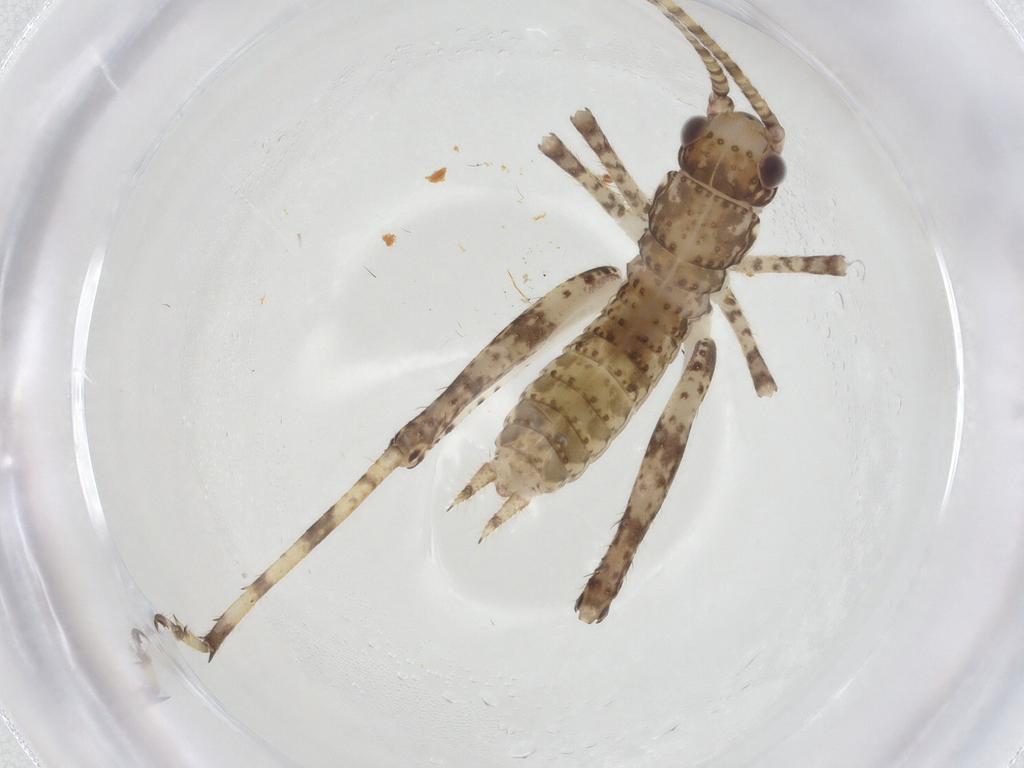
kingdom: Animalia
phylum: Arthropoda
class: Insecta
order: Orthoptera
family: Gryllidae
